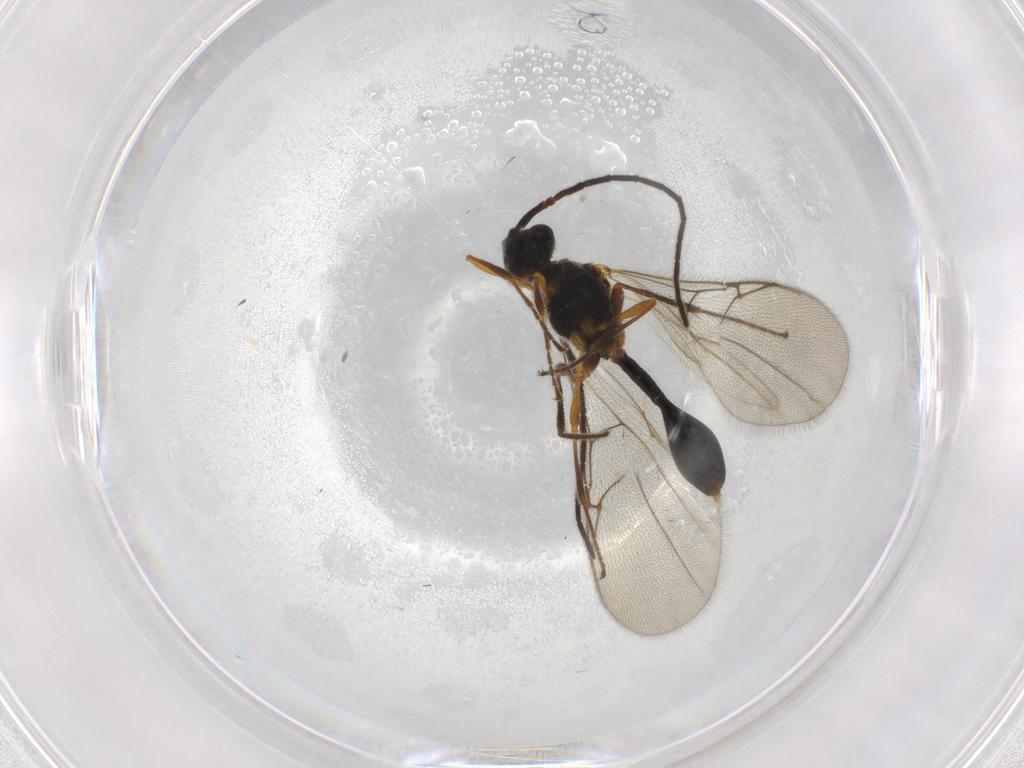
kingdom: Animalia
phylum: Arthropoda
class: Insecta
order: Hymenoptera
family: Diapriidae
